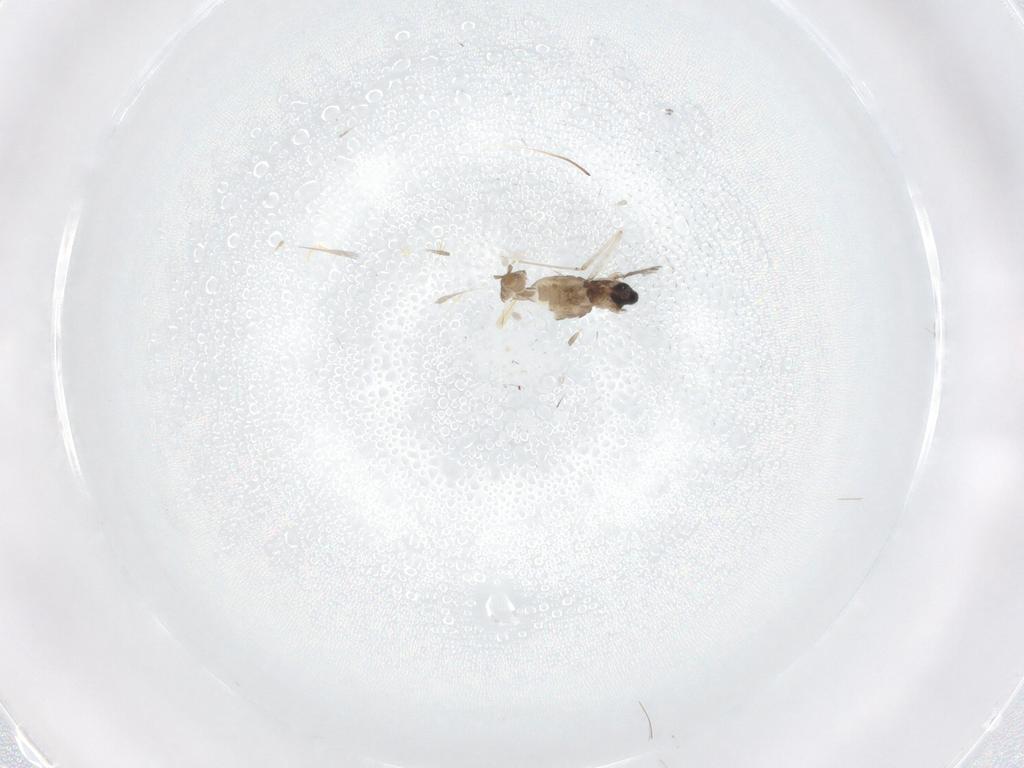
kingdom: Animalia
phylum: Arthropoda
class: Insecta
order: Diptera
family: Cecidomyiidae
